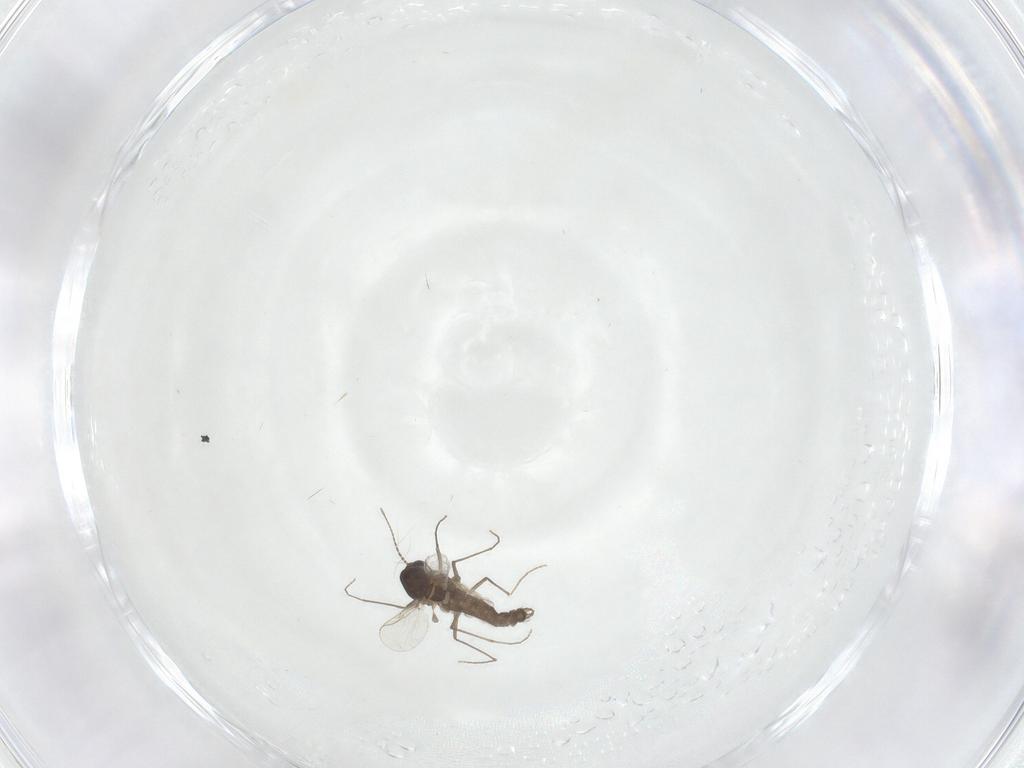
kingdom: Animalia
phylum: Arthropoda
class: Insecta
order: Diptera
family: Chironomidae
